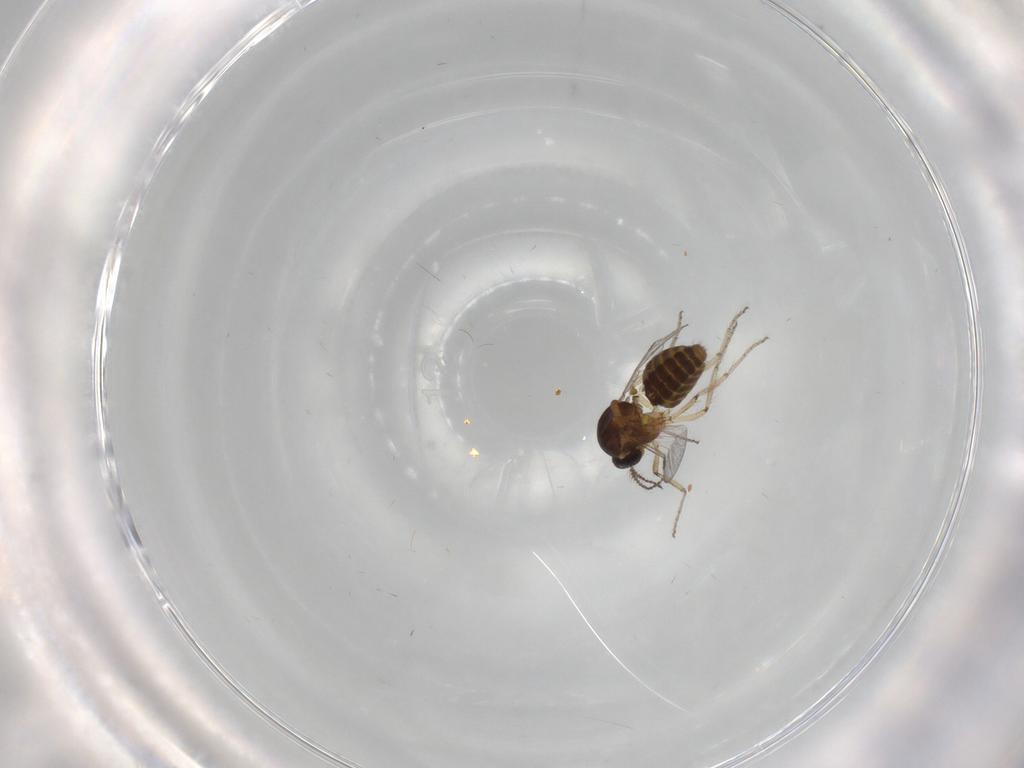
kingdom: Animalia
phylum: Arthropoda
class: Insecta
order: Diptera
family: Ceratopogonidae
